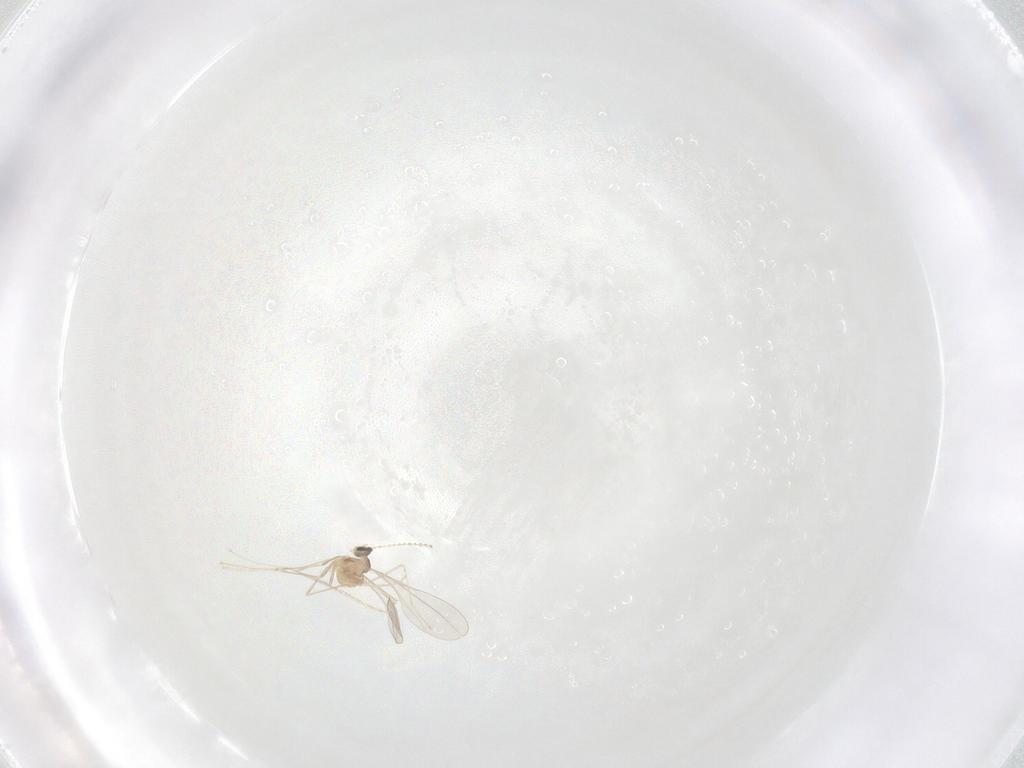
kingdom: Animalia
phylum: Arthropoda
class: Insecta
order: Diptera
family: Cecidomyiidae
